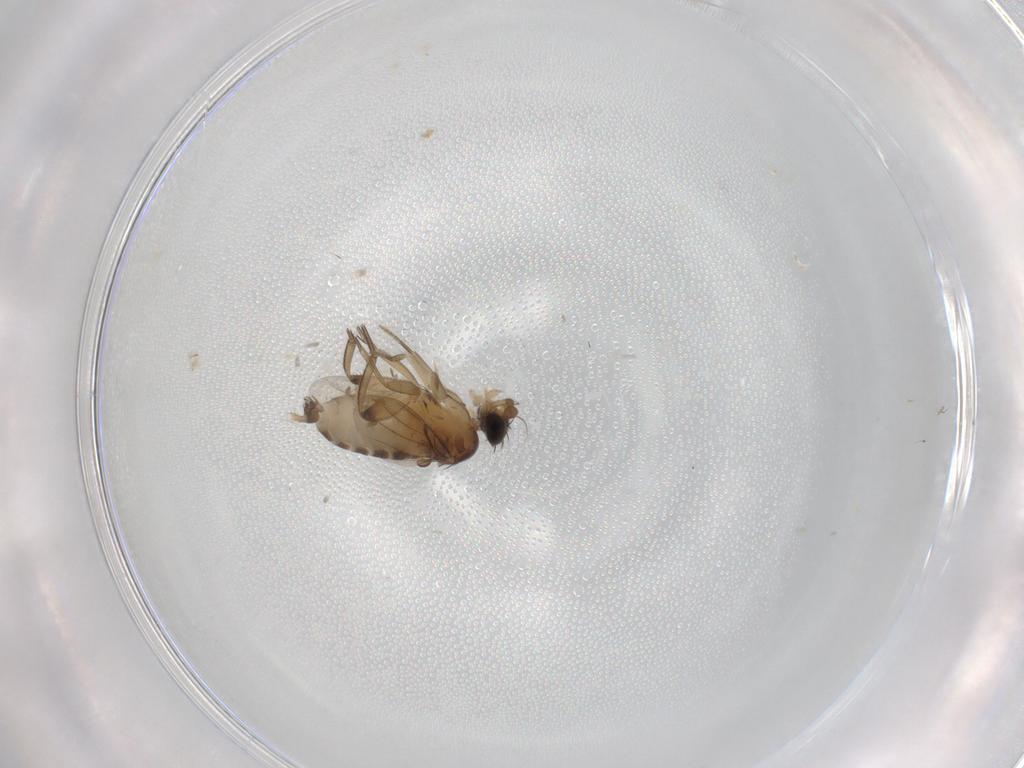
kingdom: Animalia
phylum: Arthropoda
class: Insecta
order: Diptera
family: Phoridae
